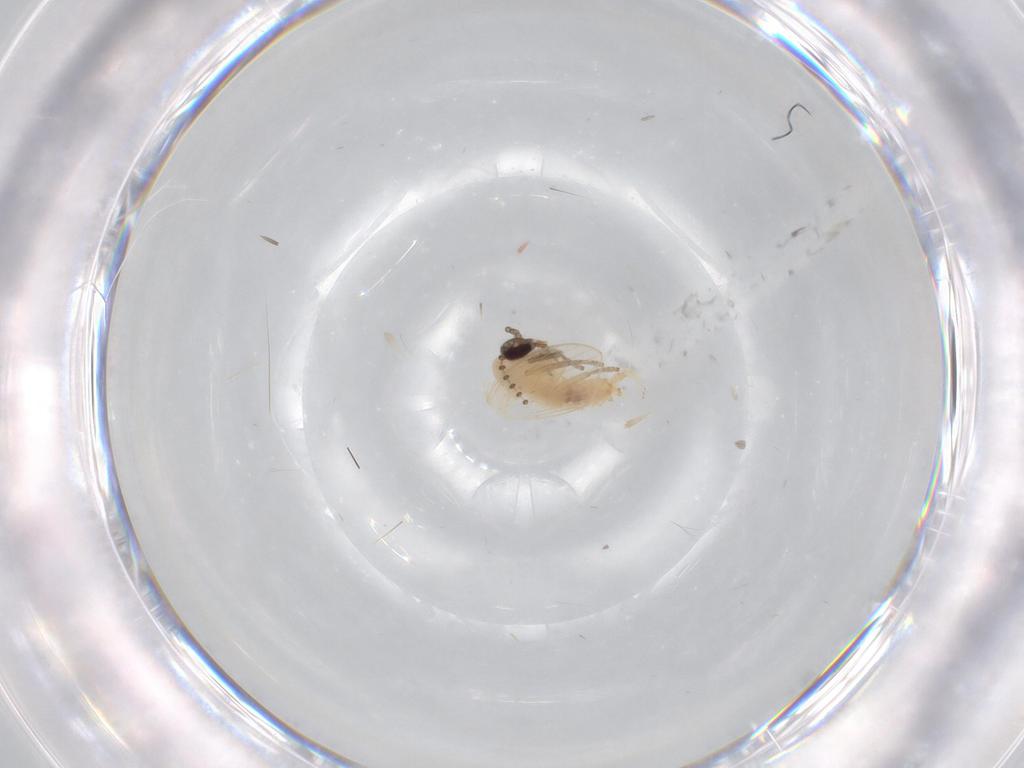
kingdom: Animalia
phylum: Arthropoda
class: Insecta
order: Diptera
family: Psychodidae
